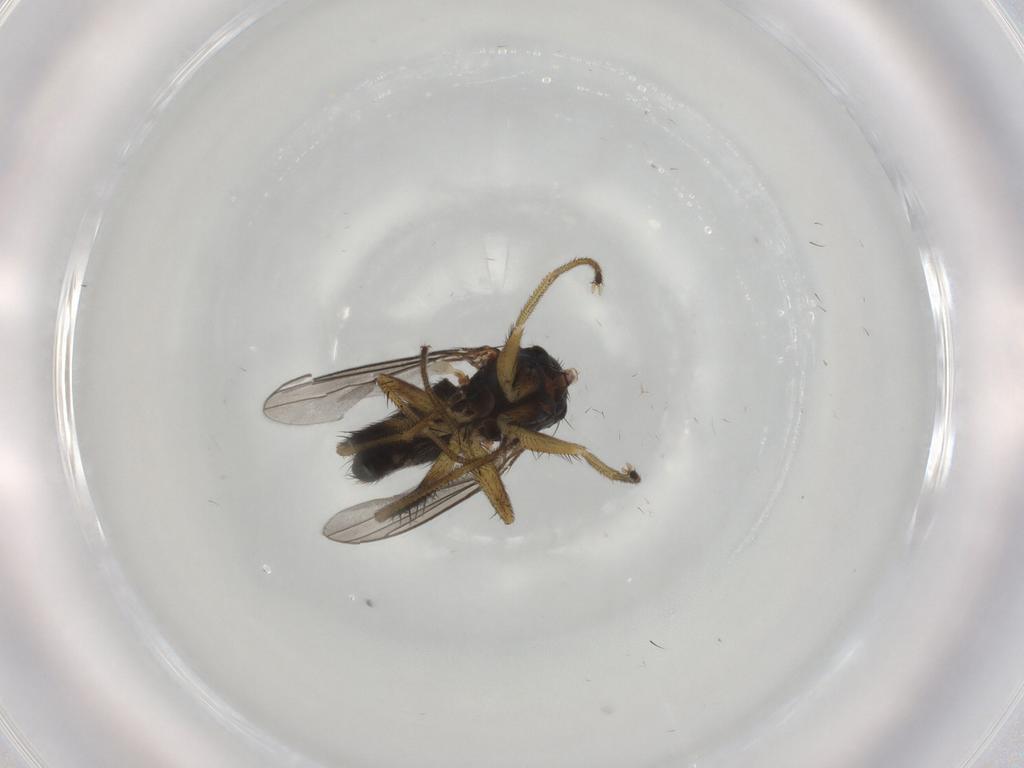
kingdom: Animalia
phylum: Arthropoda
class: Insecta
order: Diptera
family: Dolichopodidae
